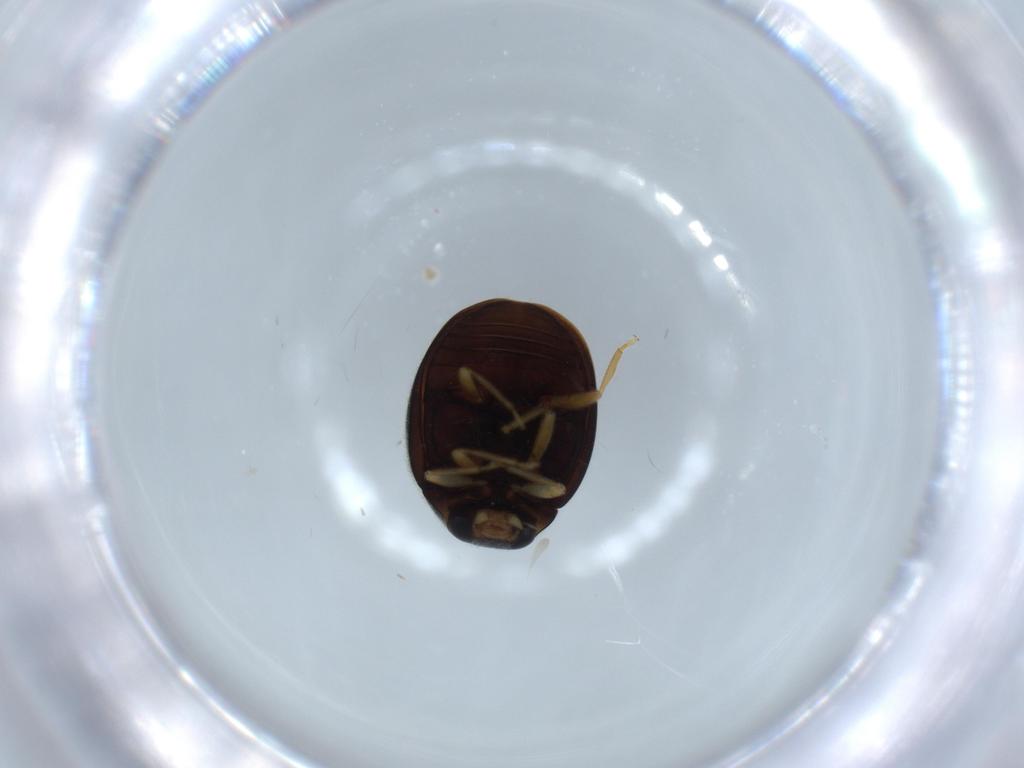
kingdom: Animalia
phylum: Arthropoda
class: Insecta
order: Coleoptera
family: Coccinellidae
